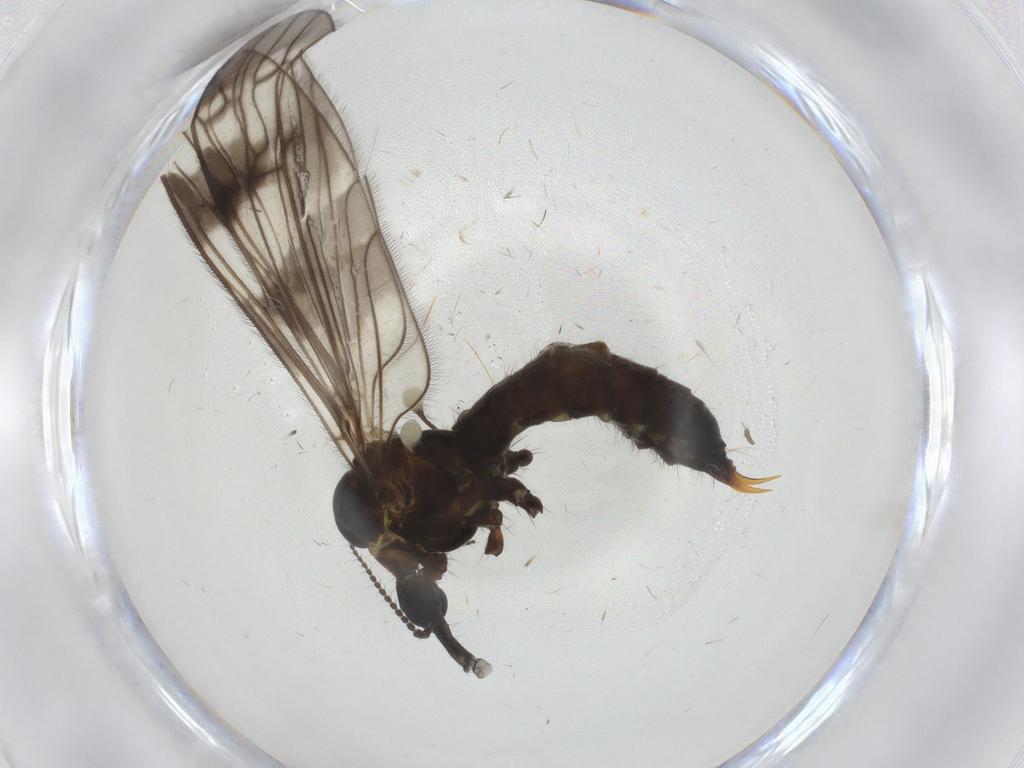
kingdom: Animalia
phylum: Arthropoda
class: Insecta
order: Diptera
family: Limoniidae
